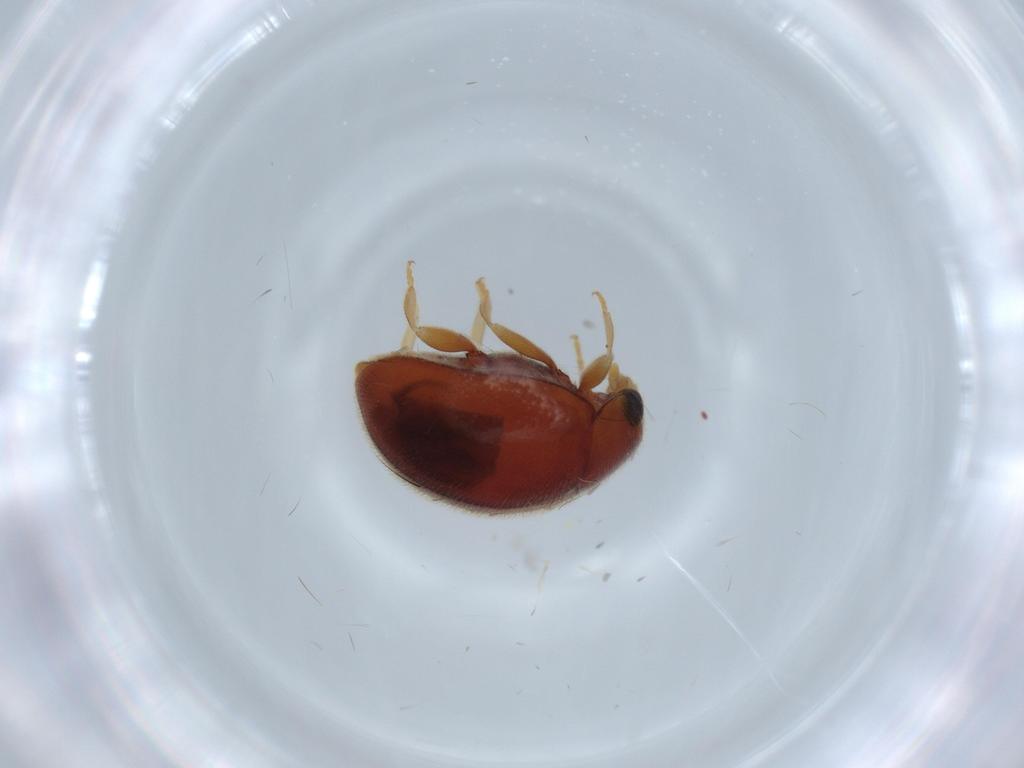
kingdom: Animalia
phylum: Arthropoda
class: Insecta
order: Coleoptera
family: Coccinellidae
